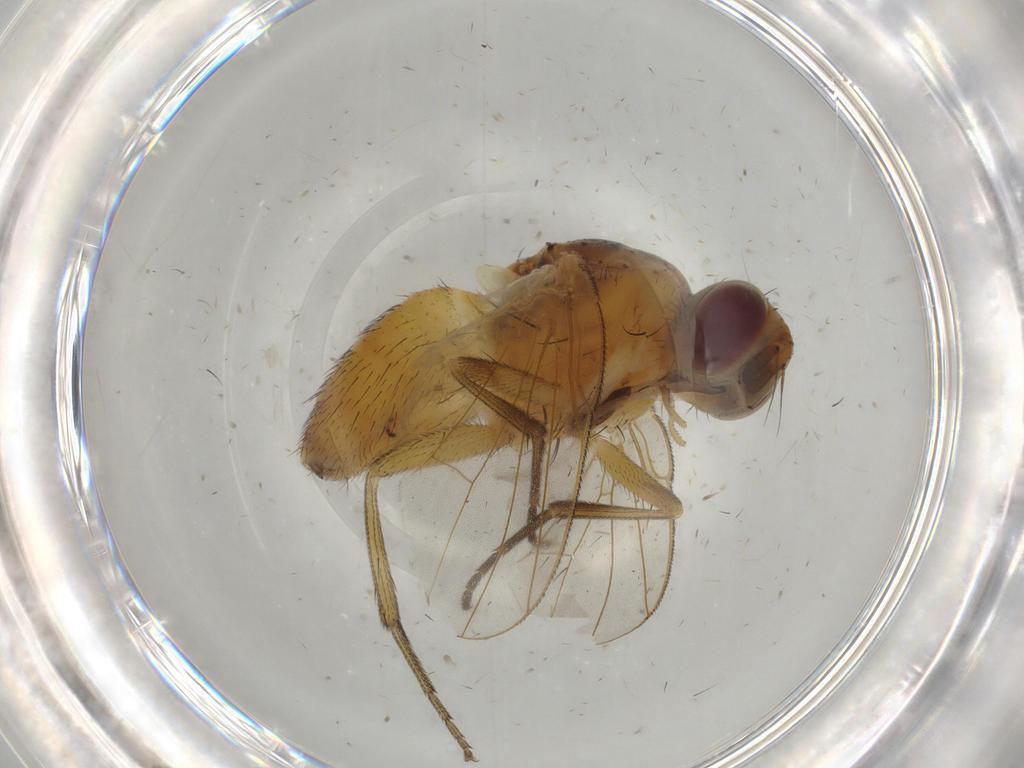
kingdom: Animalia
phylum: Arthropoda
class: Insecta
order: Diptera
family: Muscidae
